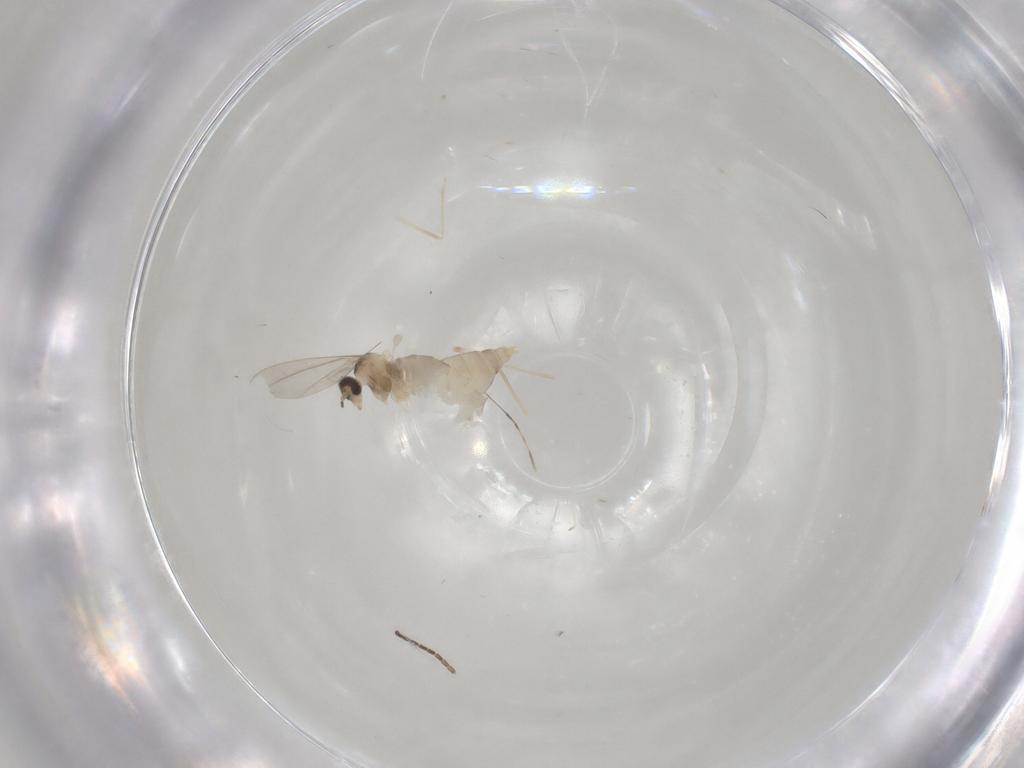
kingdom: Animalia
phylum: Arthropoda
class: Insecta
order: Diptera
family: Cecidomyiidae
